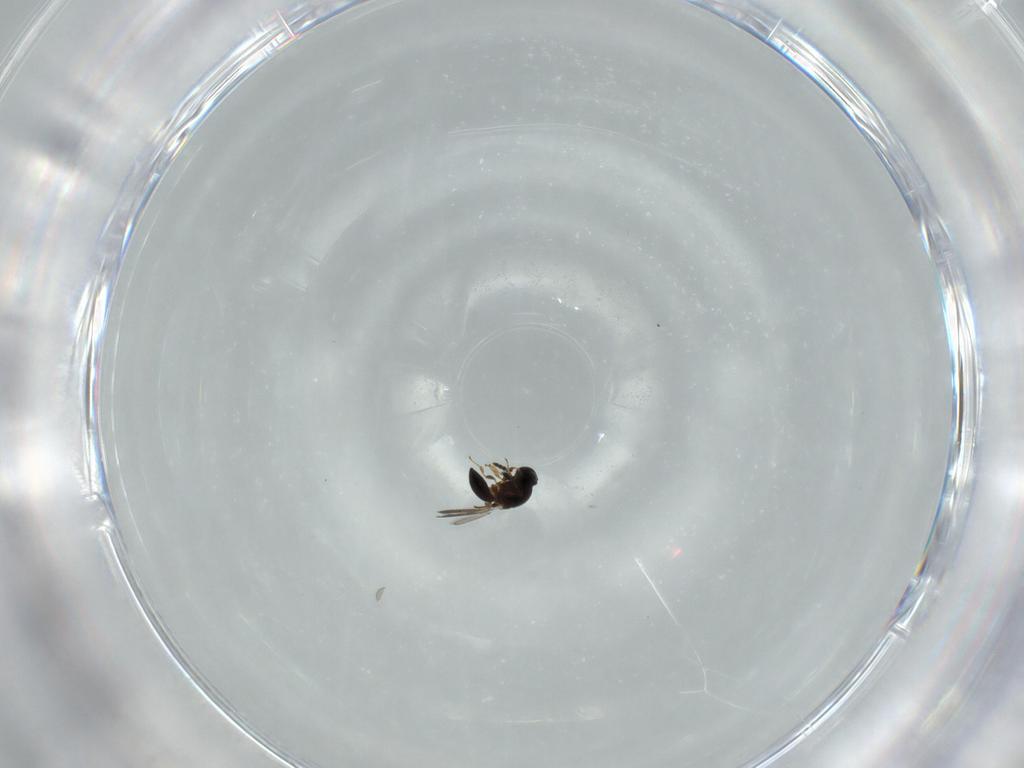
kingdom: Animalia
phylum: Arthropoda
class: Insecta
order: Hymenoptera
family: Platygastridae
